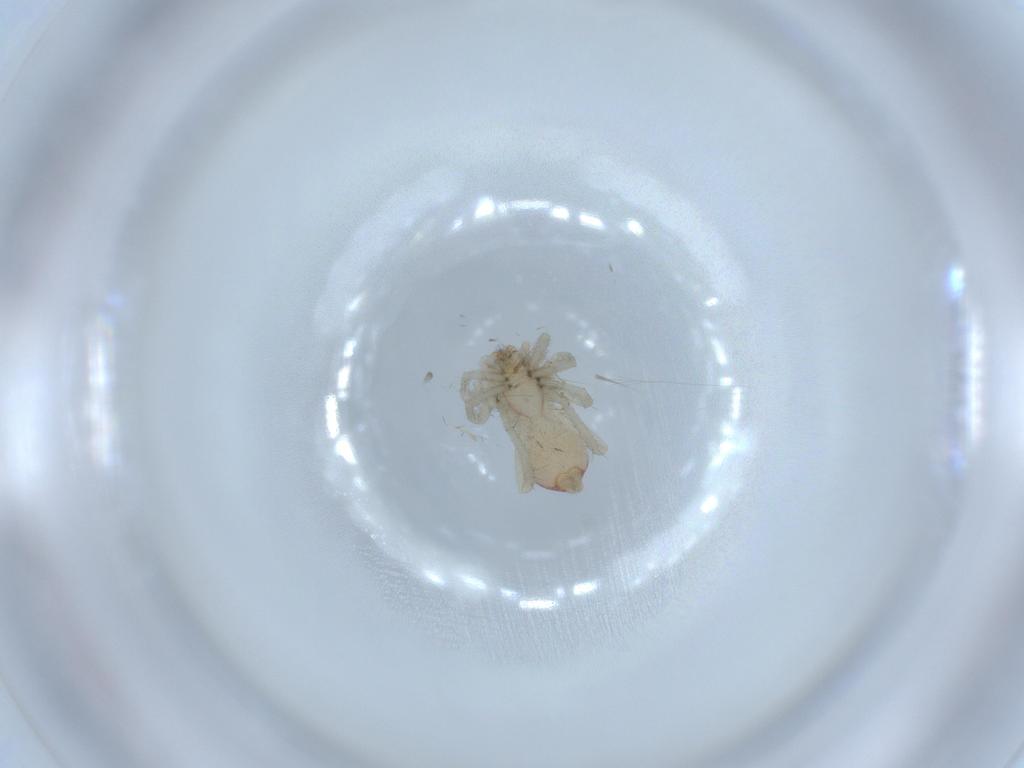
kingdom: Animalia
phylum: Arthropoda
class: Arachnida
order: Araneae
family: Clubionidae
